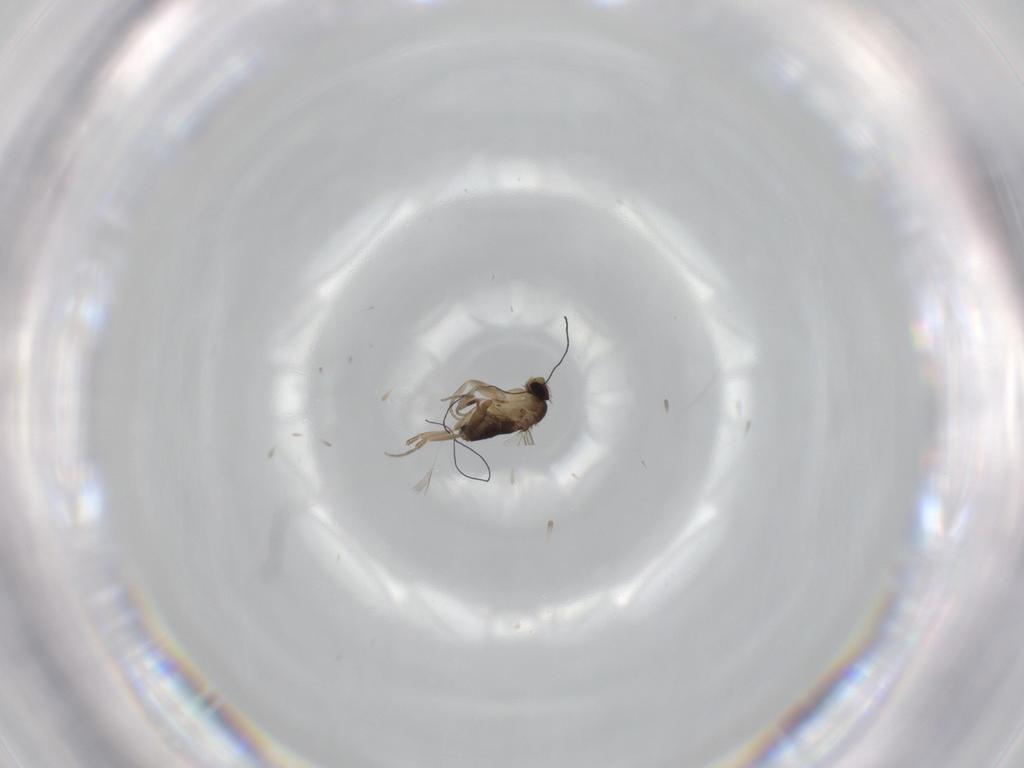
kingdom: Animalia
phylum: Arthropoda
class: Insecta
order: Diptera
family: Phoridae
